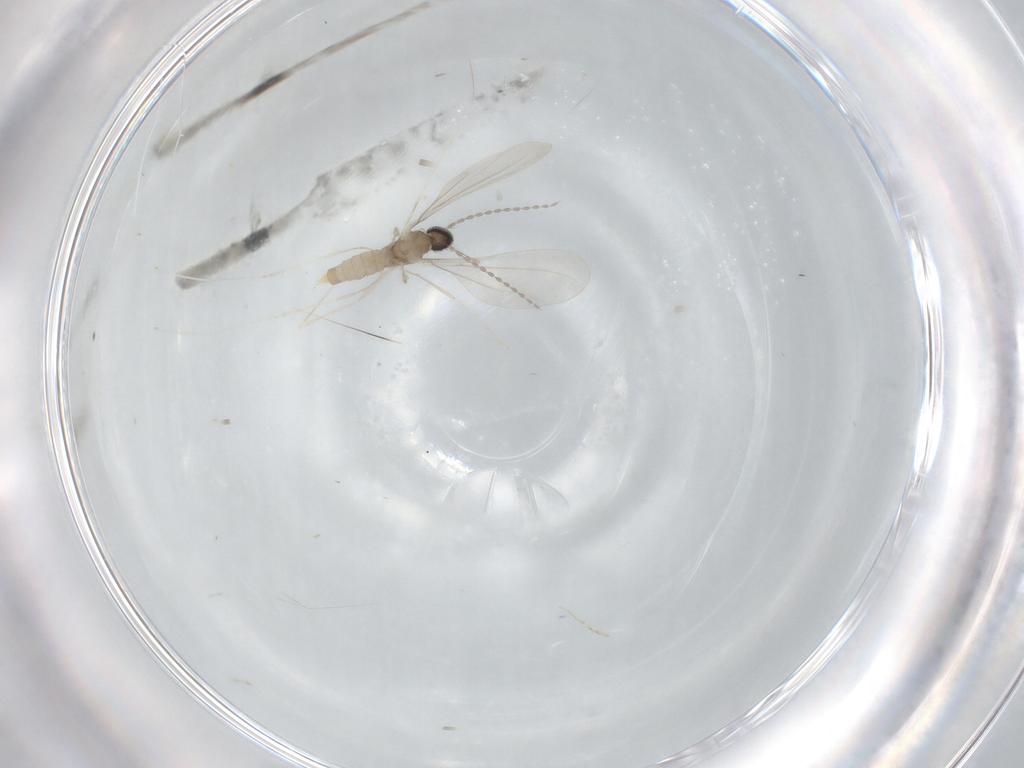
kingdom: Animalia
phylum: Arthropoda
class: Insecta
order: Diptera
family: Cecidomyiidae
